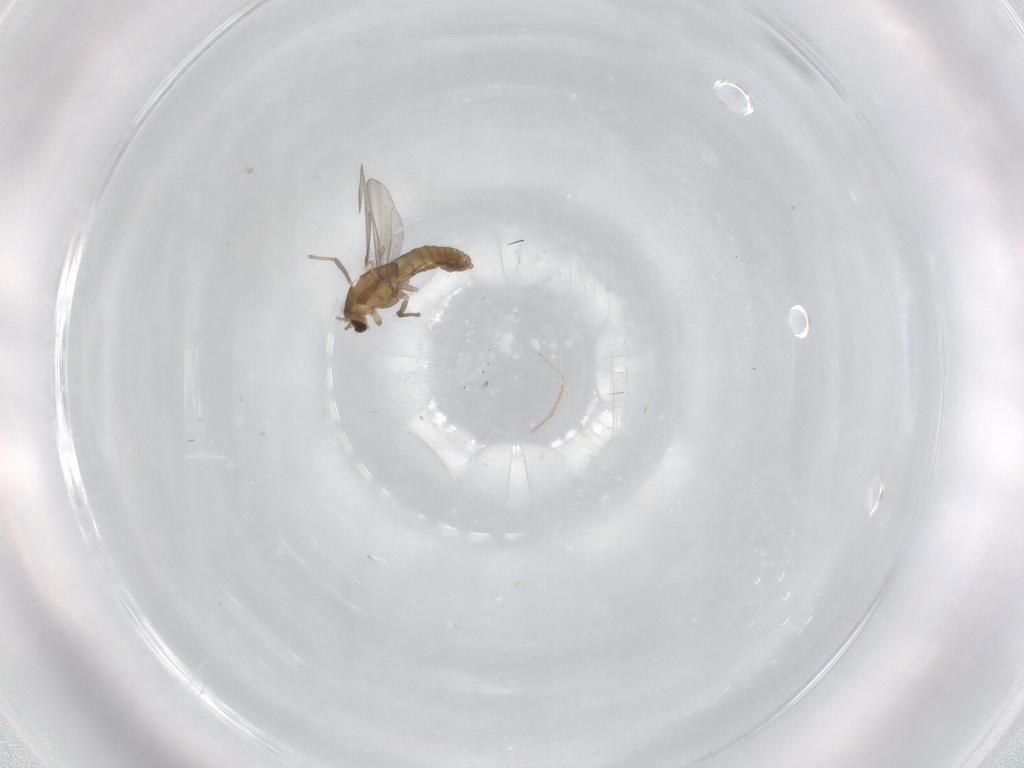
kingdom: Animalia
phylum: Arthropoda
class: Insecta
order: Diptera
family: Chironomidae
